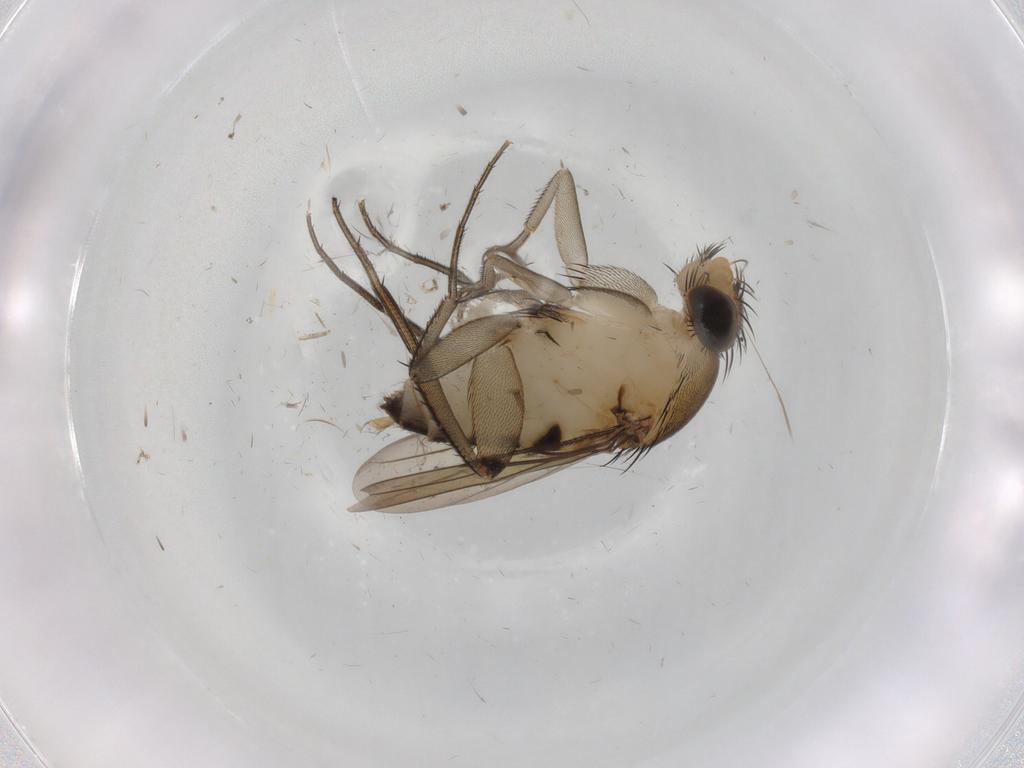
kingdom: Animalia
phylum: Arthropoda
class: Insecta
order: Diptera
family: Phoridae
